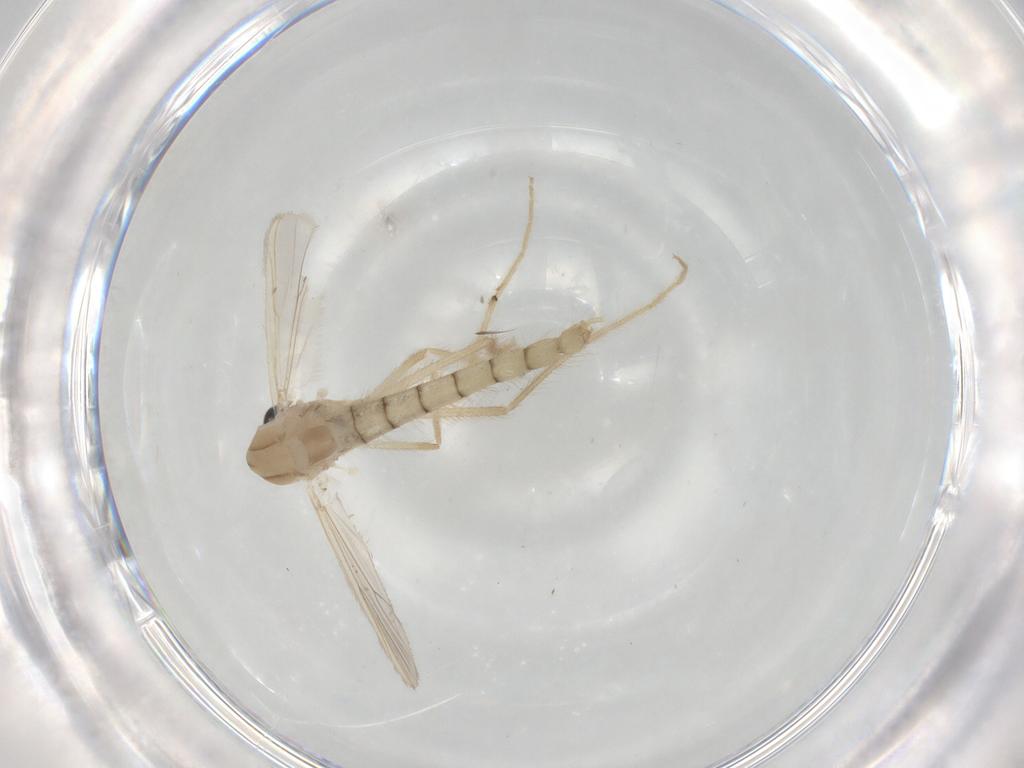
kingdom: Animalia
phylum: Arthropoda
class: Insecta
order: Diptera
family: Chironomidae
